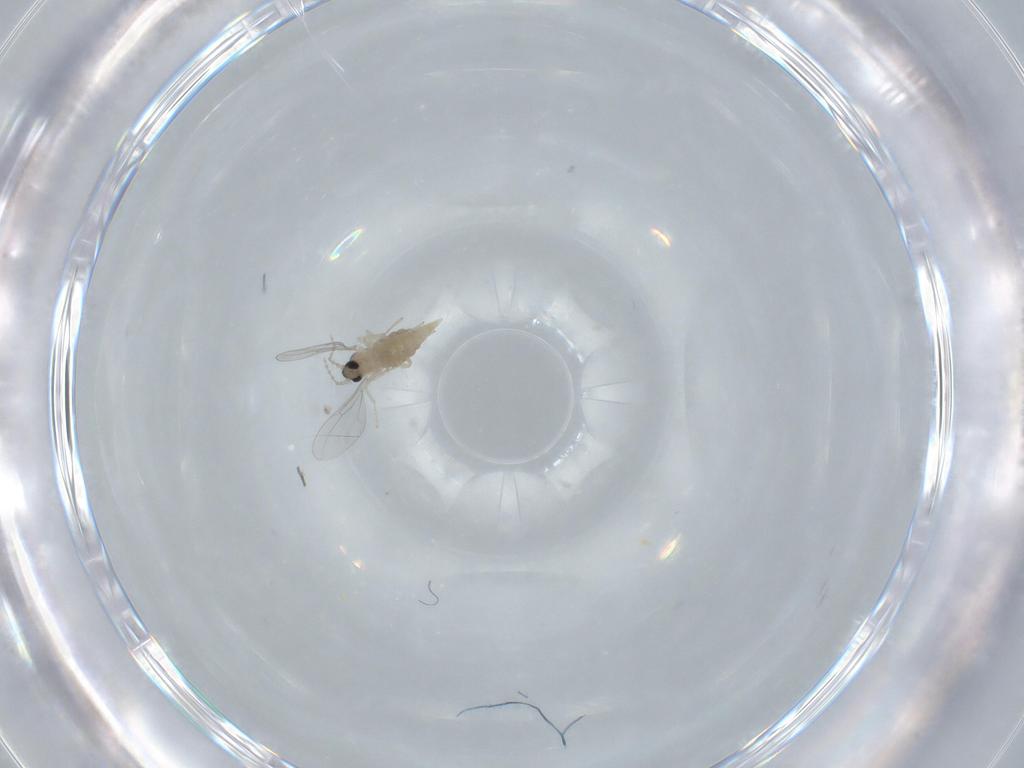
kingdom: Animalia
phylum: Arthropoda
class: Insecta
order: Diptera
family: Cecidomyiidae
